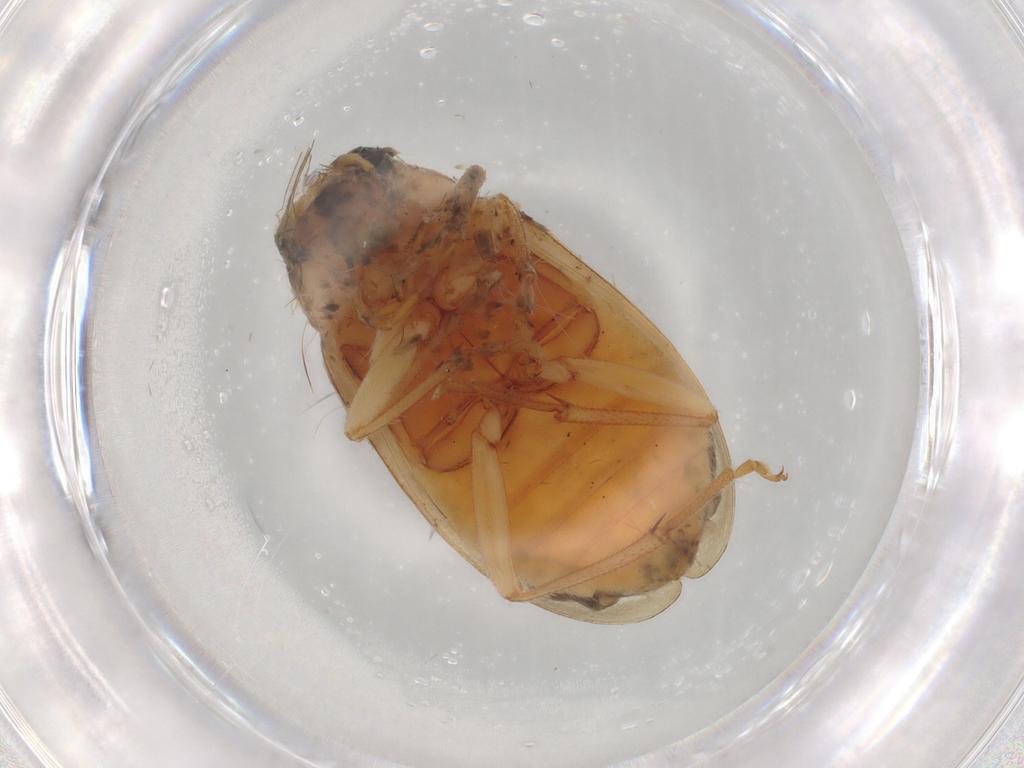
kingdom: Animalia
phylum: Arthropoda
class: Insecta
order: Coleoptera
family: Chrysomelidae
